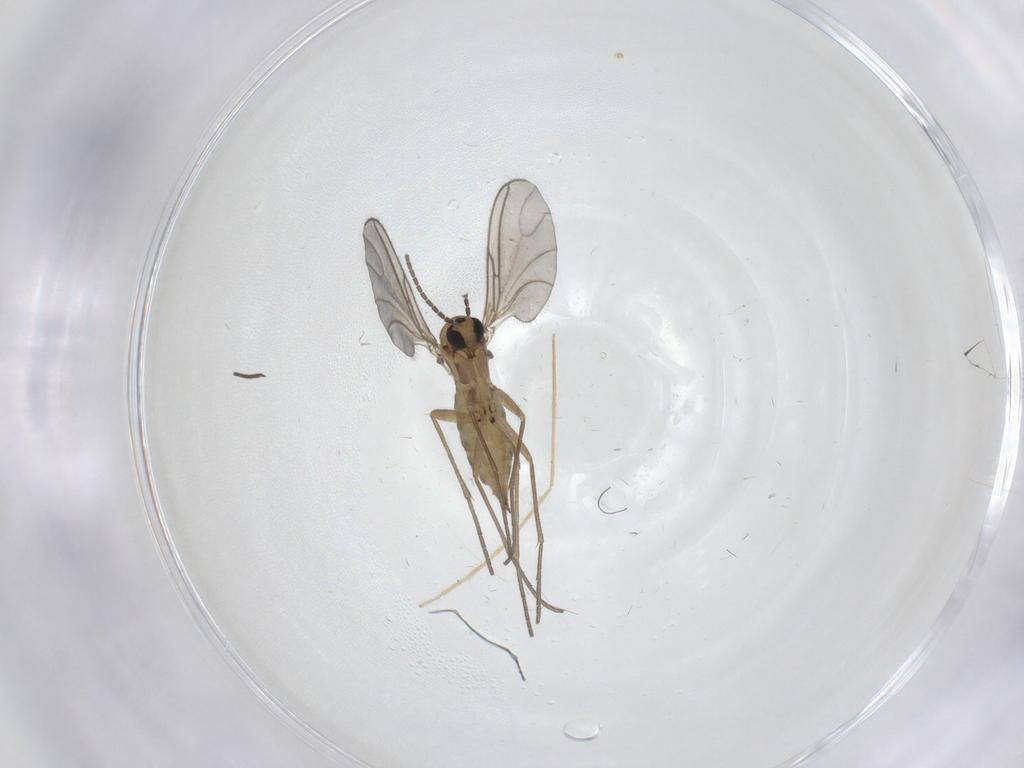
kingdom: Animalia
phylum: Arthropoda
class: Insecta
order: Diptera
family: Sciaridae
